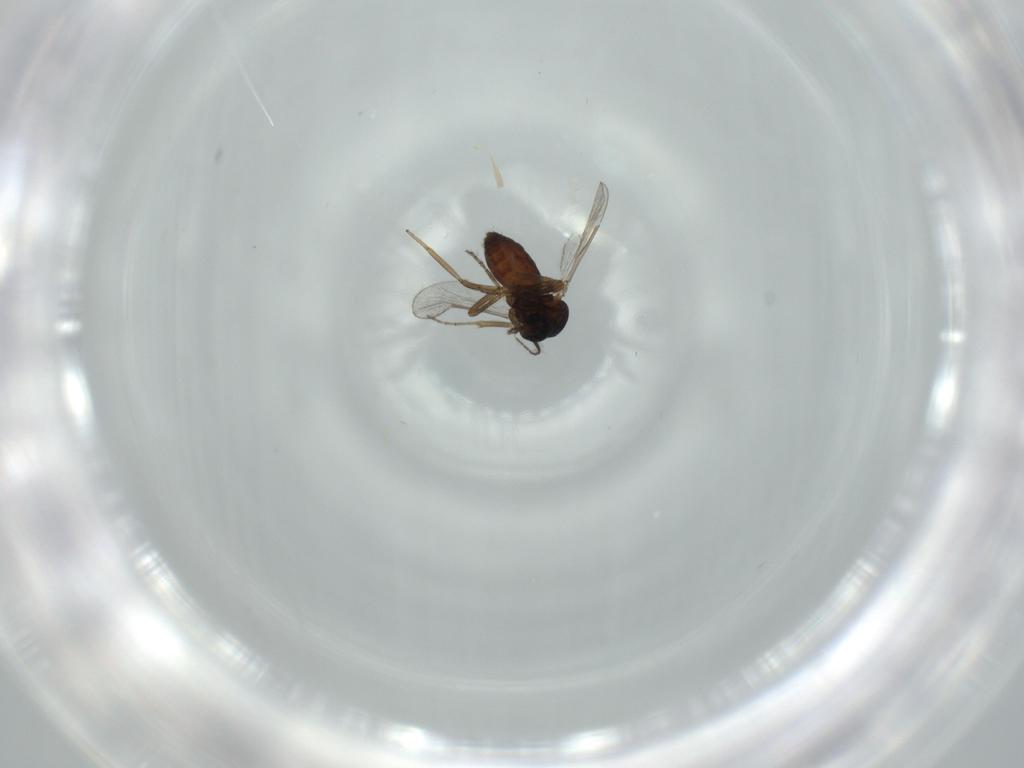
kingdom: Animalia
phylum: Arthropoda
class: Insecta
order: Diptera
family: Ceratopogonidae
